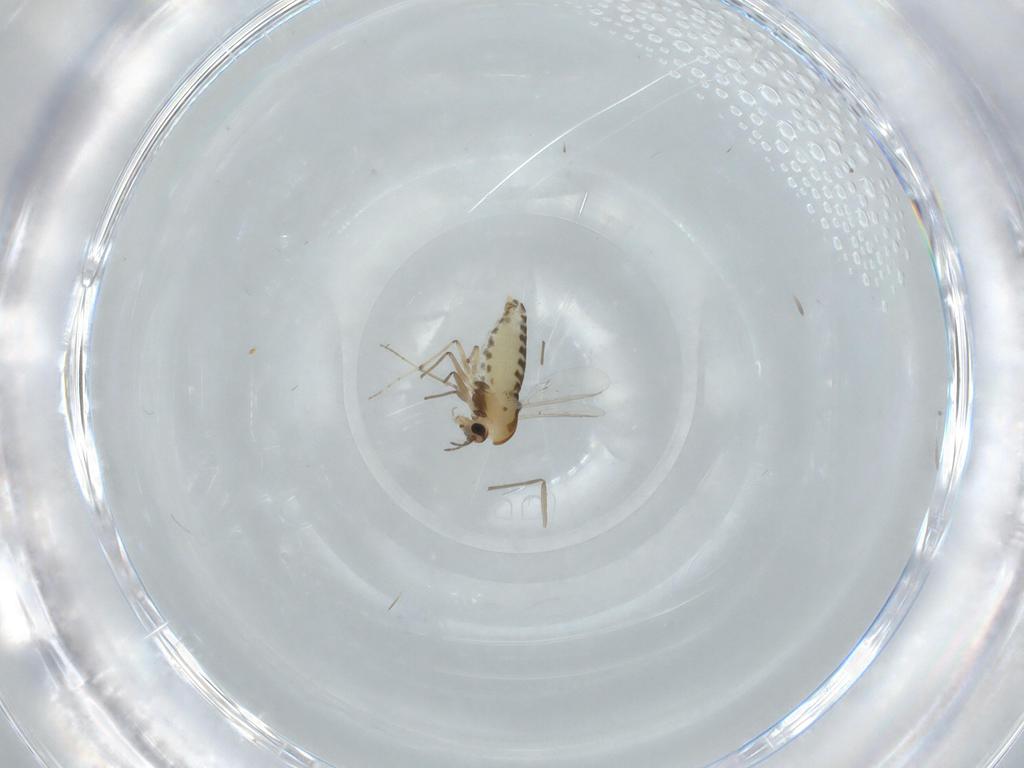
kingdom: Animalia
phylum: Arthropoda
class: Insecta
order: Diptera
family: Chironomidae
